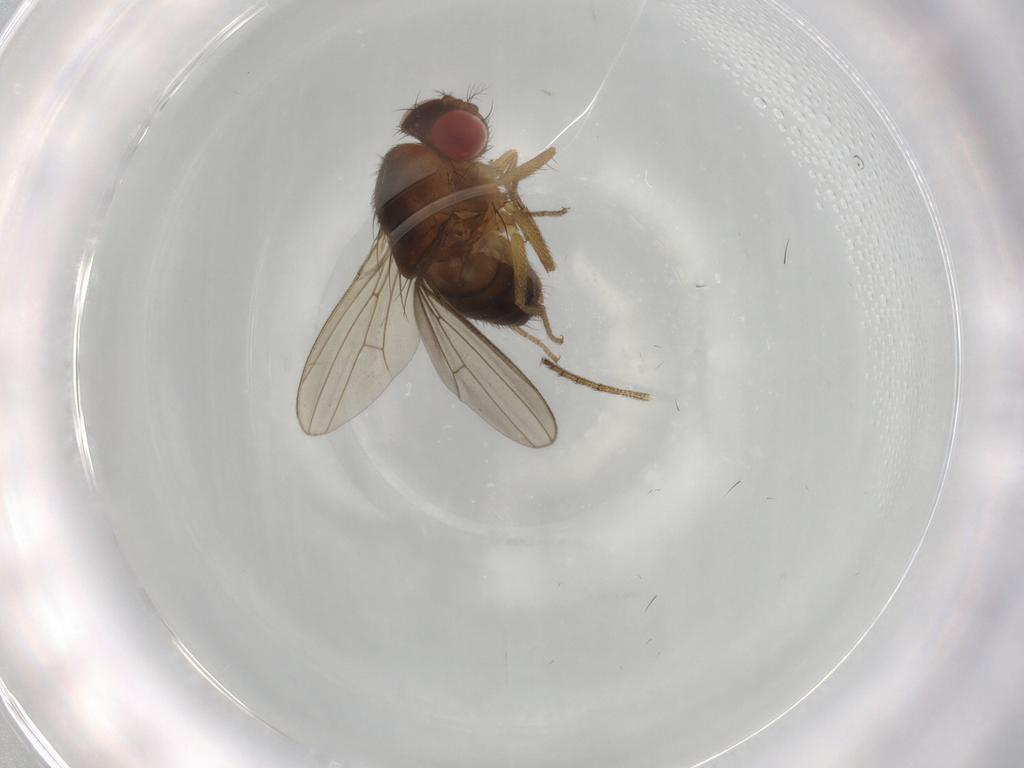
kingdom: Animalia
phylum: Arthropoda
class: Insecta
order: Diptera
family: Drosophilidae
